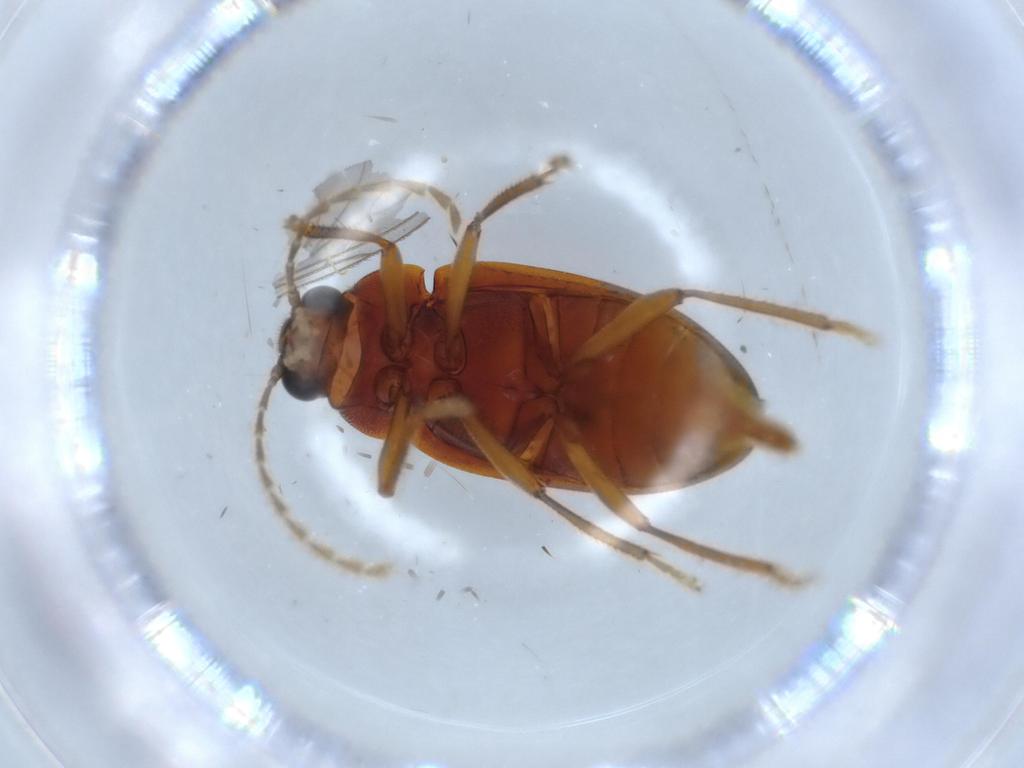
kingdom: Animalia
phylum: Arthropoda
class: Insecta
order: Coleoptera
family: Ptilodactylidae
